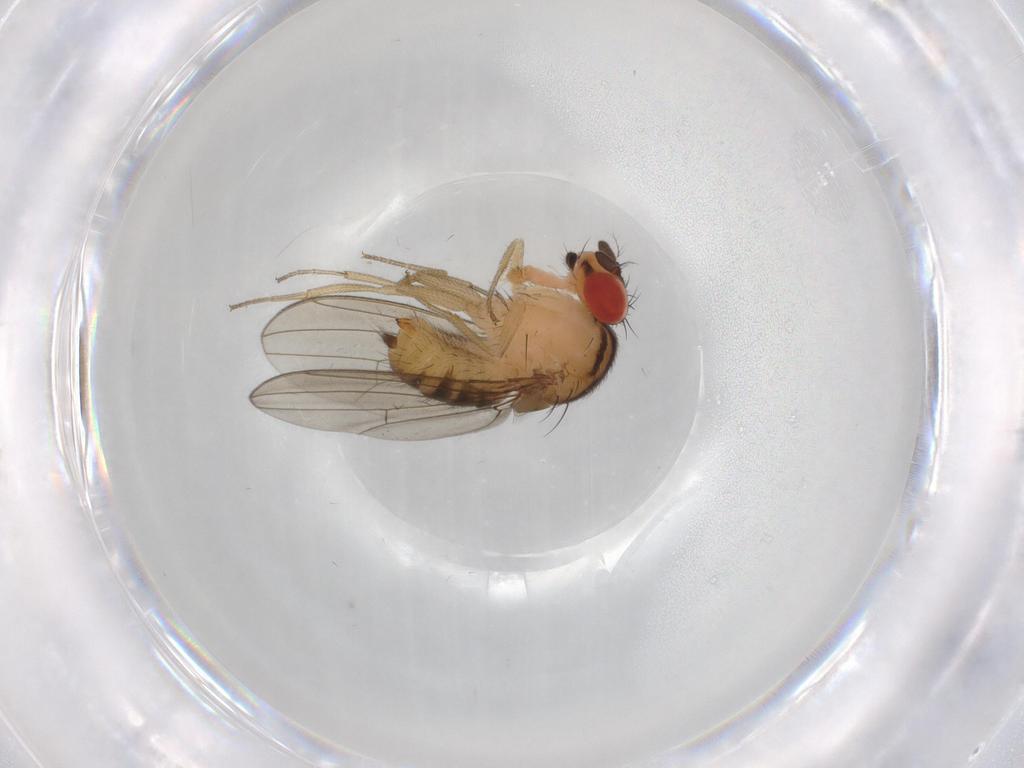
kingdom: Animalia
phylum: Arthropoda
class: Insecta
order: Diptera
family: Drosophilidae
